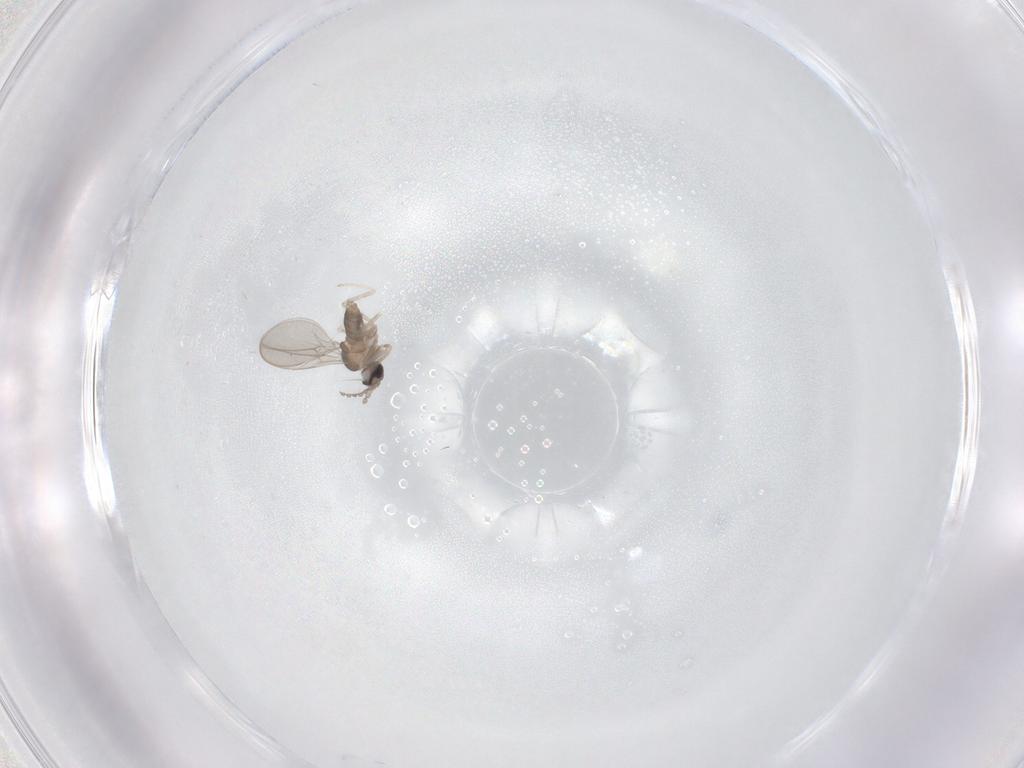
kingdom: Animalia
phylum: Arthropoda
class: Insecta
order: Diptera
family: Cecidomyiidae
